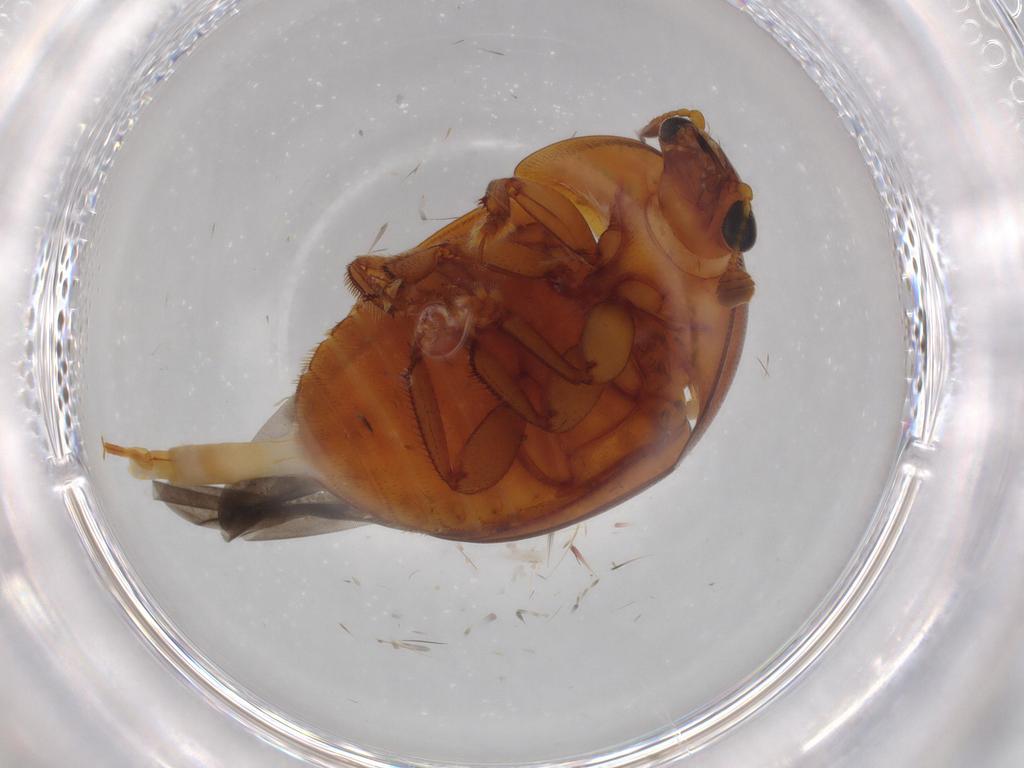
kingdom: Animalia
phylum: Arthropoda
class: Insecta
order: Coleoptera
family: Nitidulidae
